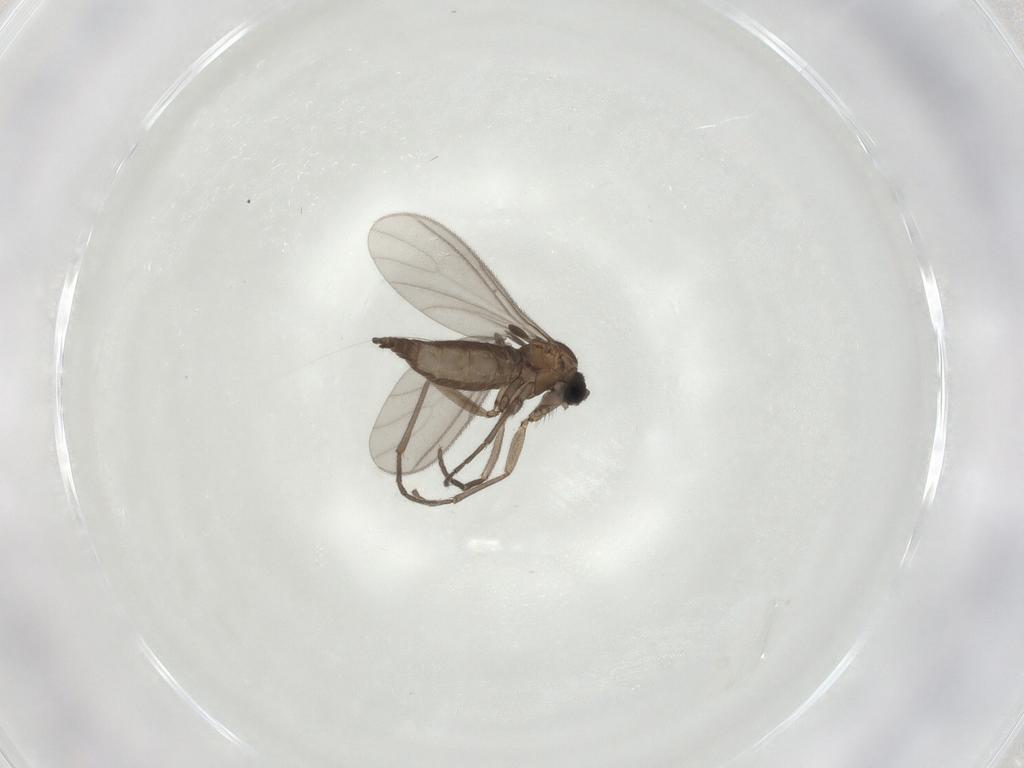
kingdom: Animalia
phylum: Arthropoda
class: Insecta
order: Diptera
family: Sciaridae
